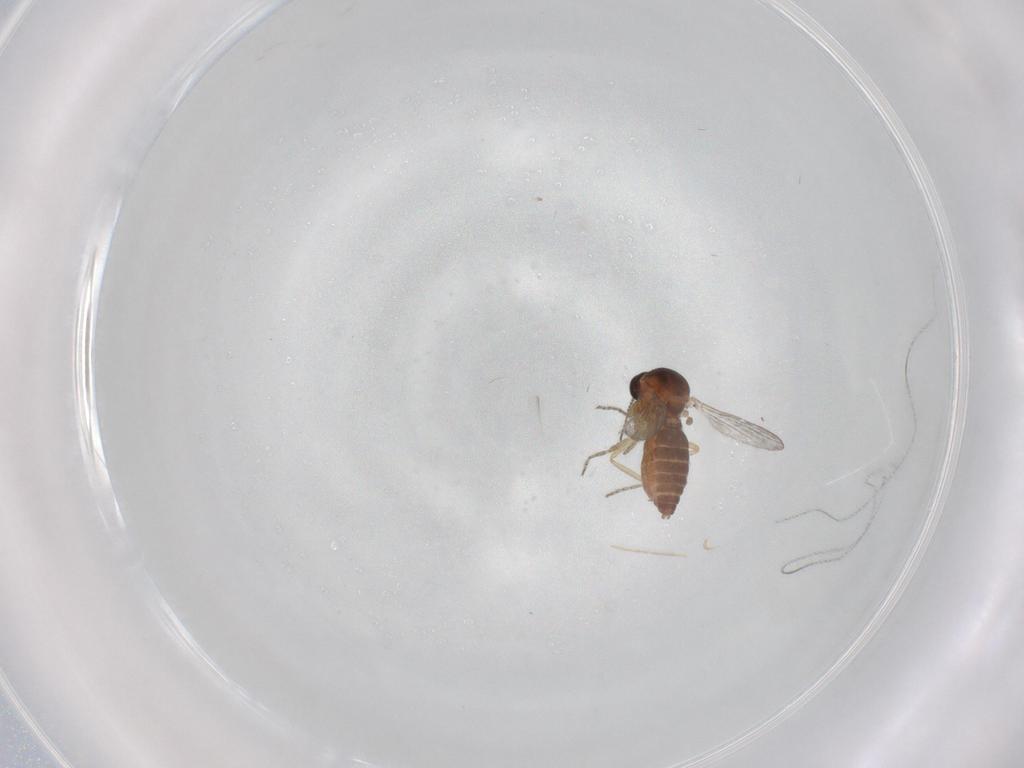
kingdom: Animalia
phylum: Arthropoda
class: Insecta
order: Diptera
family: Ceratopogonidae
